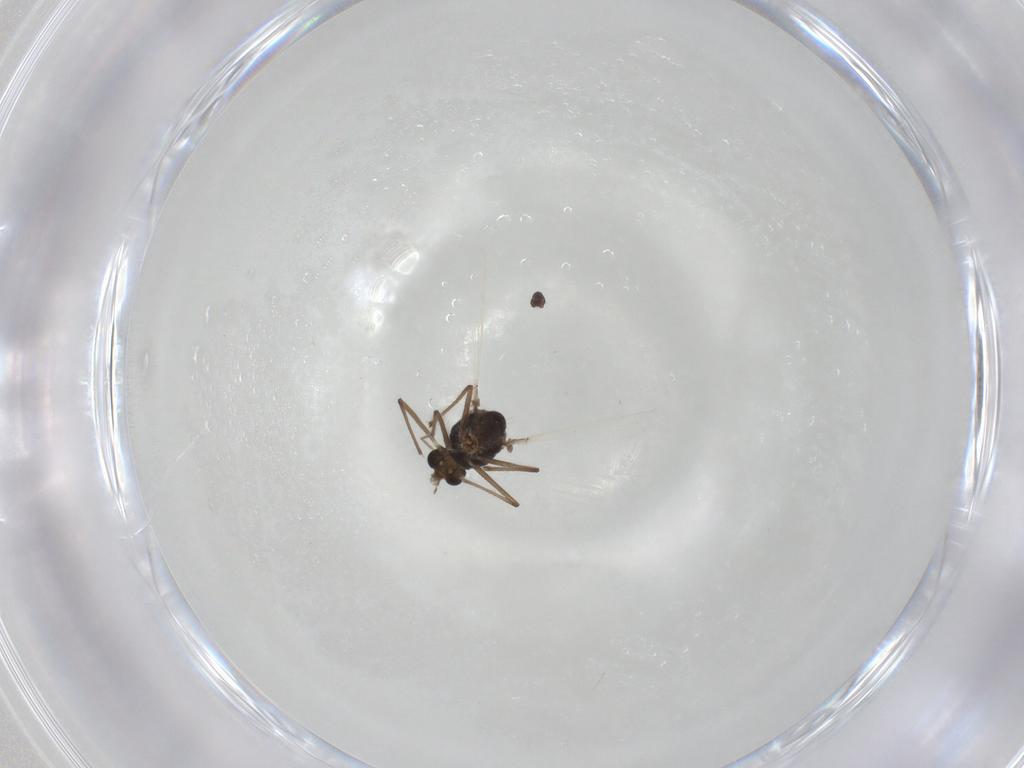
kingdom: Animalia
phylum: Arthropoda
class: Insecta
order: Diptera
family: Chironomidae
